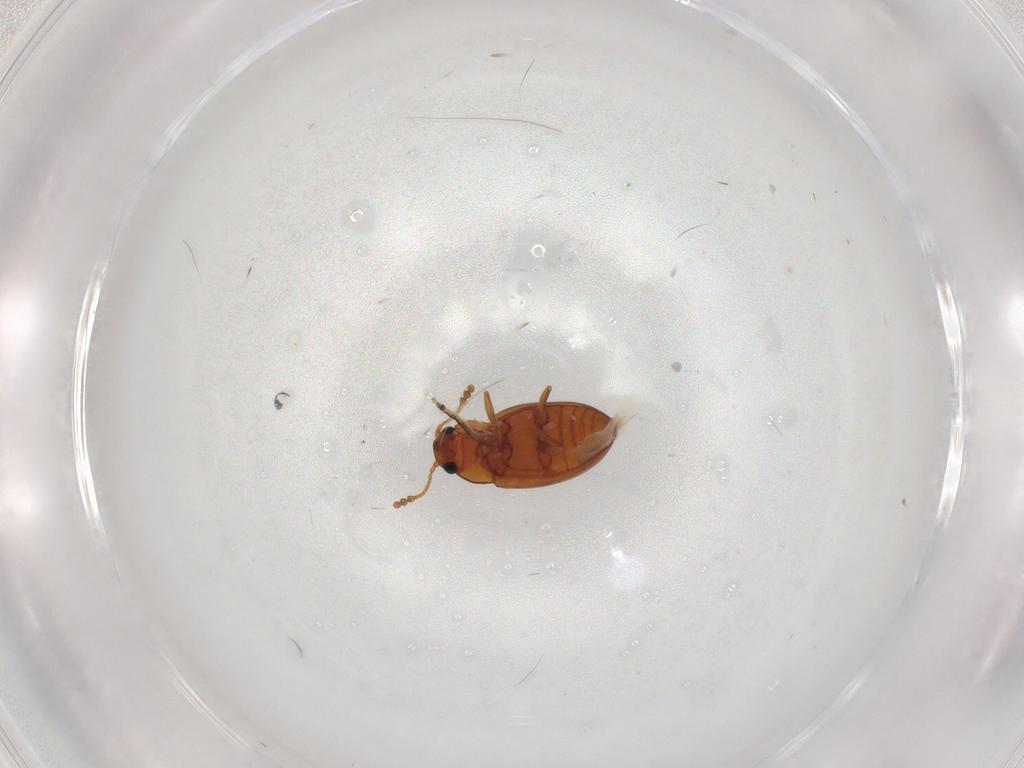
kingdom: Animalia
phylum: Arthropoda
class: Insecta
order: Coleoptera
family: Erotylidae
